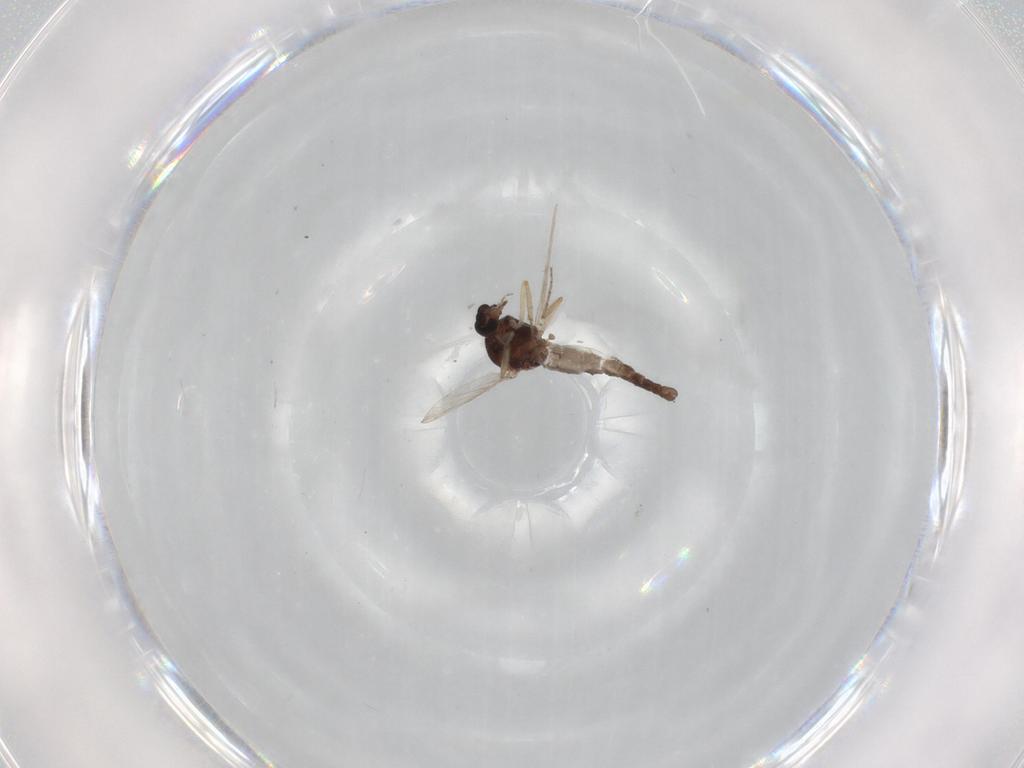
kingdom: Animalia
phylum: Arthropoda
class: Insecta
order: Diptera
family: Ceratopogonidae
